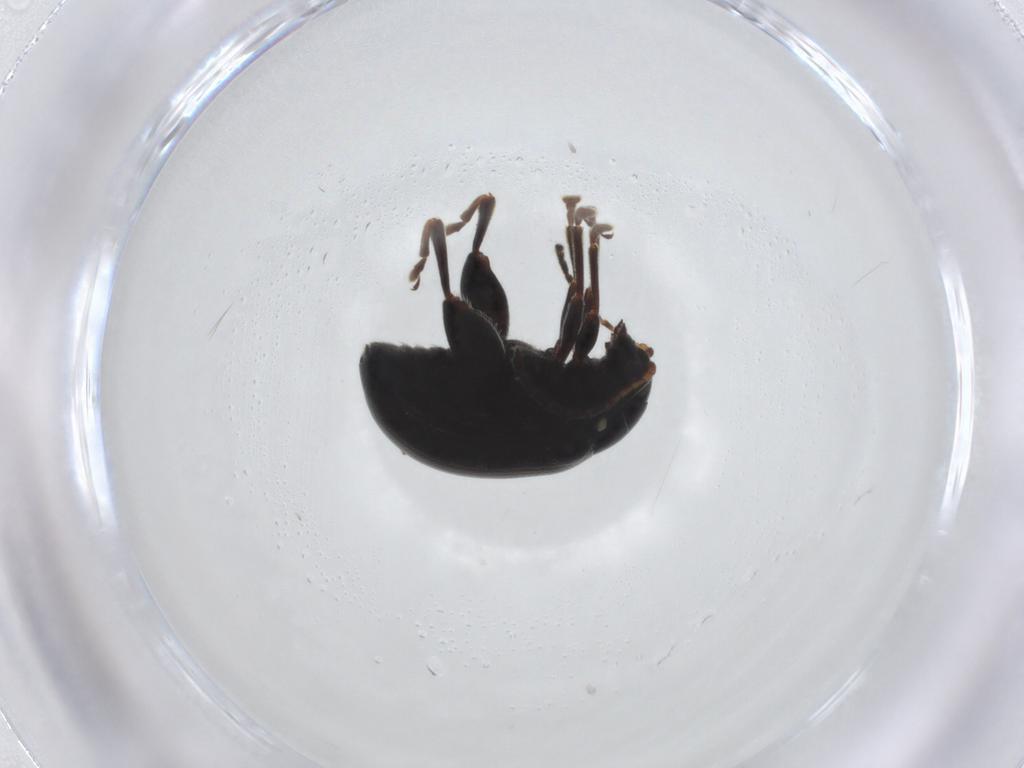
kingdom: Animalia
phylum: Arthropoda
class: Insecta
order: Coleoptera
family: Chrysomelidae
